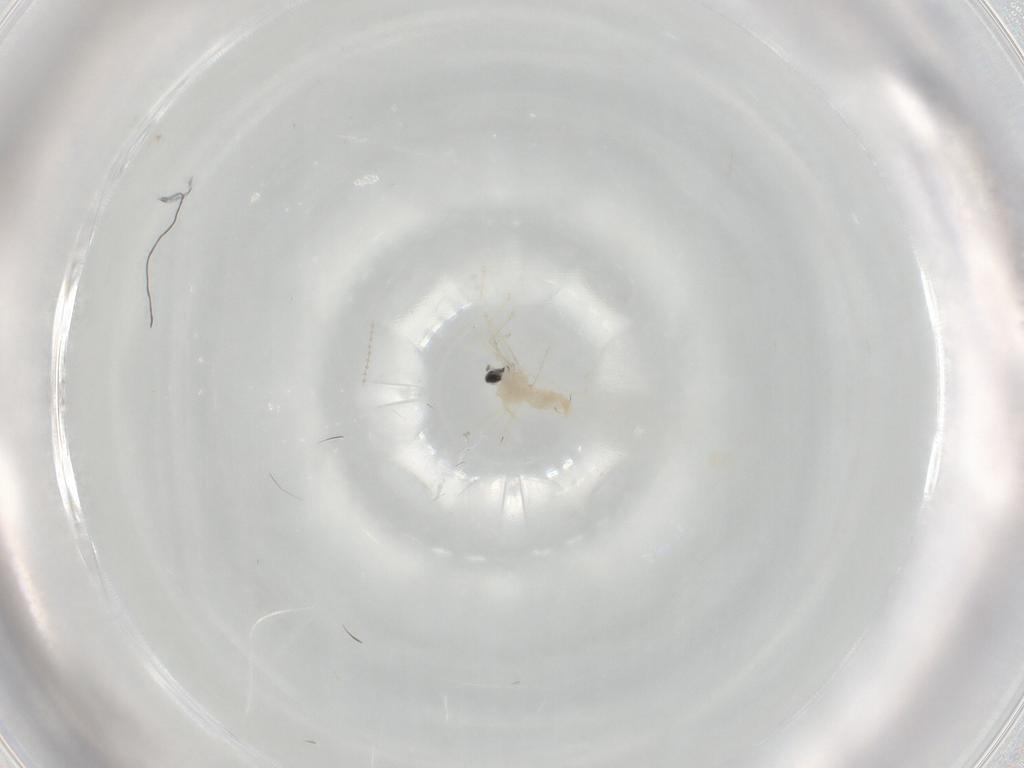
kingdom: Animalia
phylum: Arthropoda
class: Insecta
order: Diptera
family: Cecidomyiidae
